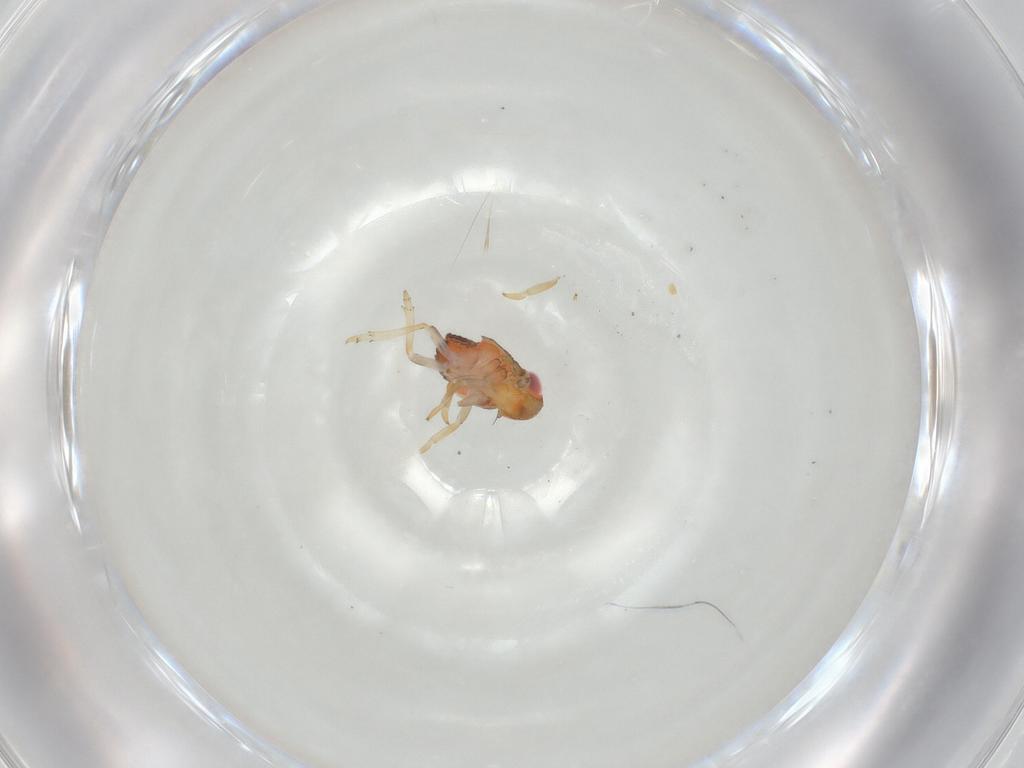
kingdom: Animalia
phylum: Arthropoda
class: Insecta
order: Hemiptera
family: Issidae
